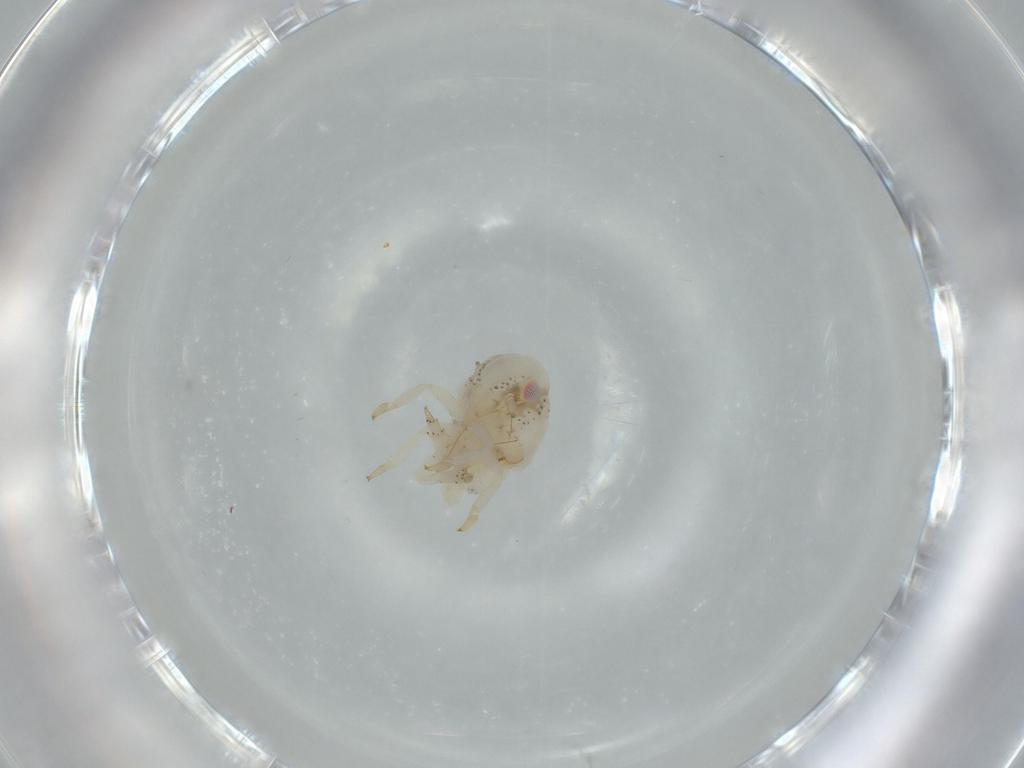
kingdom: Animalia
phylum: Arthropoda
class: Insecta
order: Hemiptera
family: Acanaloniidae
